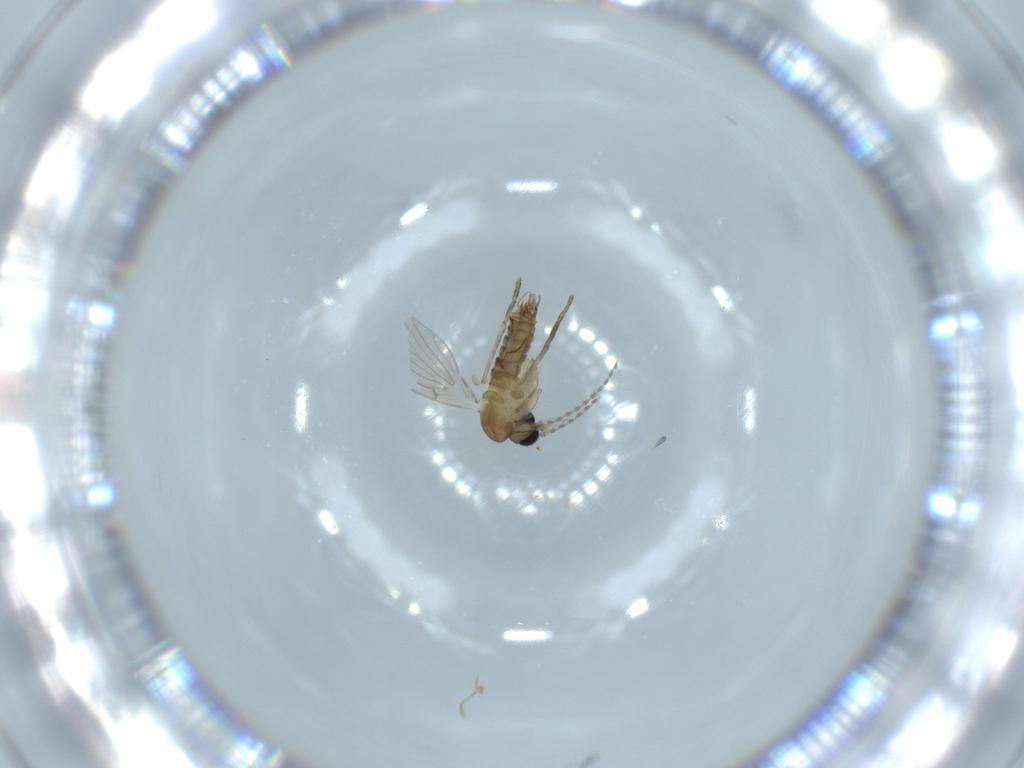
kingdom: Animalia
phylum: Arthropoda
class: Insecta
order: Diptera
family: Psychodidae
